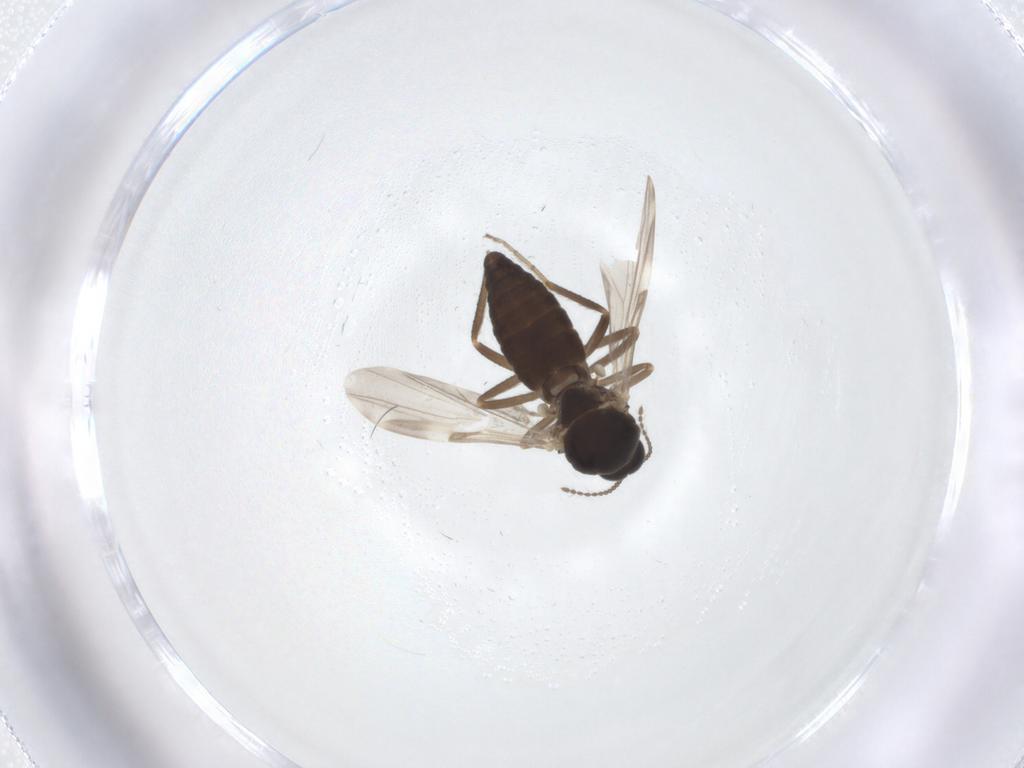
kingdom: Animalia
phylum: Arthropoda
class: Insecta
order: Diptera
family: Ceratopogonidae
